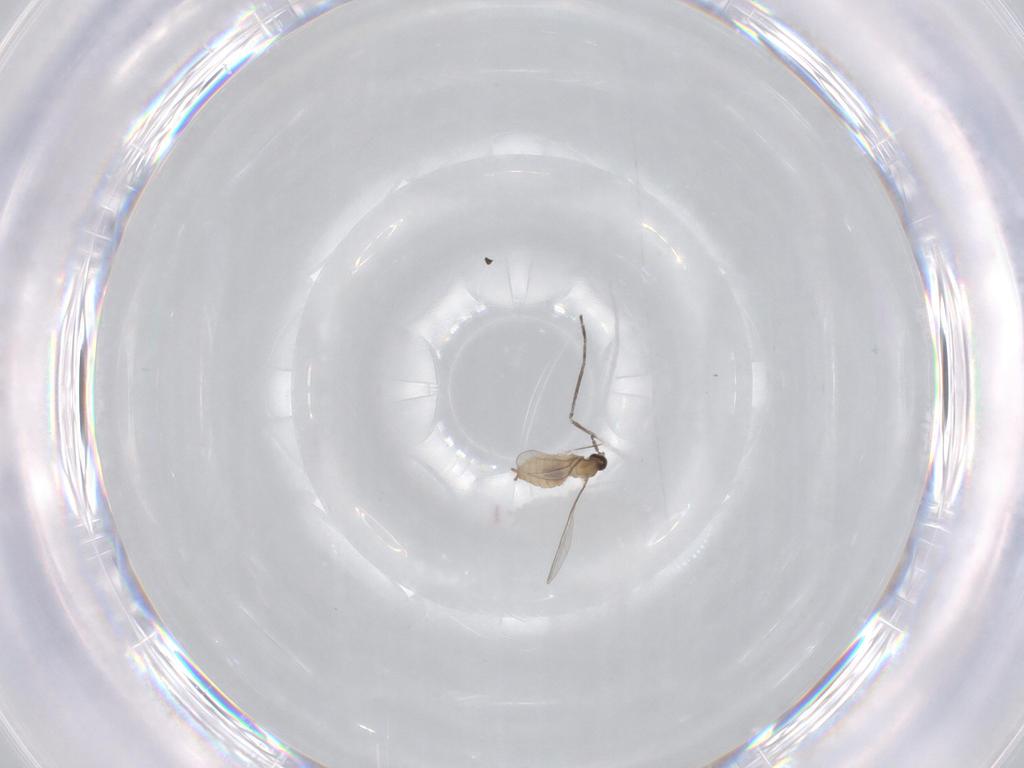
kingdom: Animalia
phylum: Arthropoda
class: Insecta
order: Diptera
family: Cecidomyiidae
